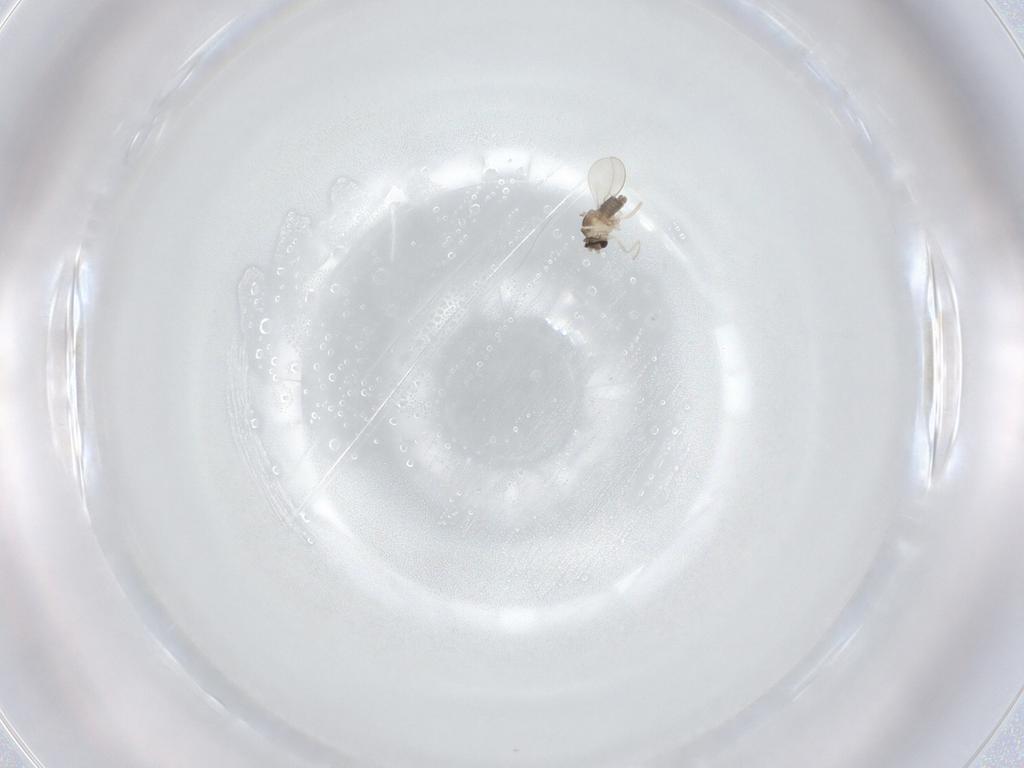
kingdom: Animalia
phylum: Arthropoda
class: Insecta
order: Diptera
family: Cecidomyiidae
